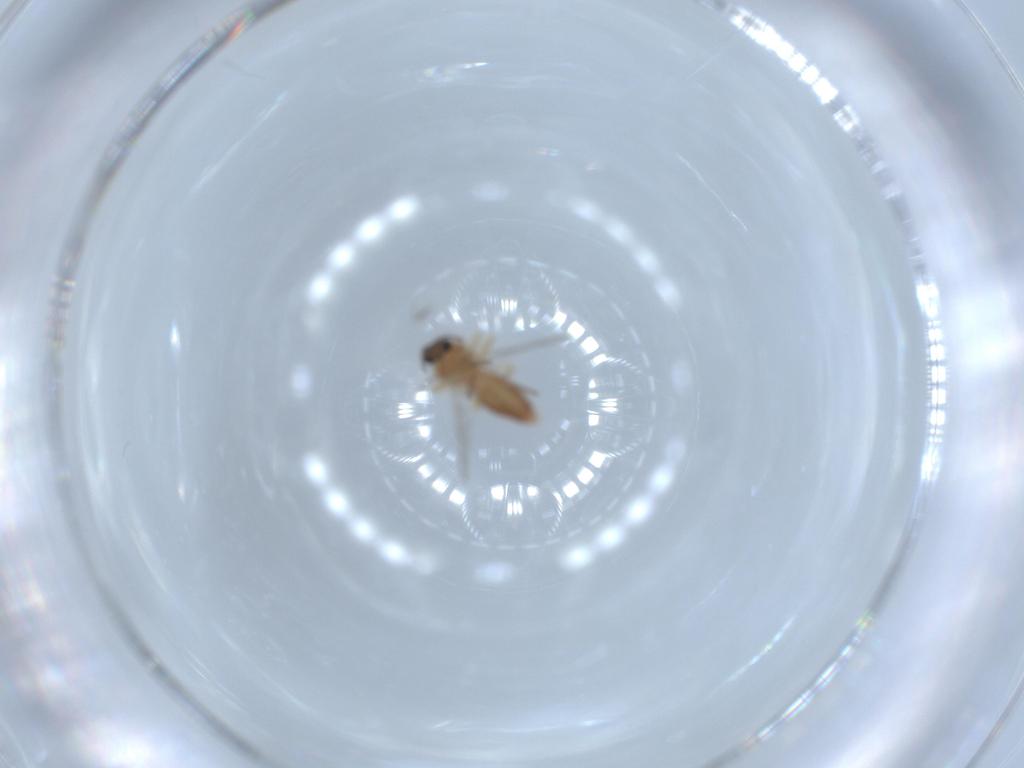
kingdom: Animalia
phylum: Arthropoda
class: Insecta
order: Diptera
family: Ceratopogonidae
